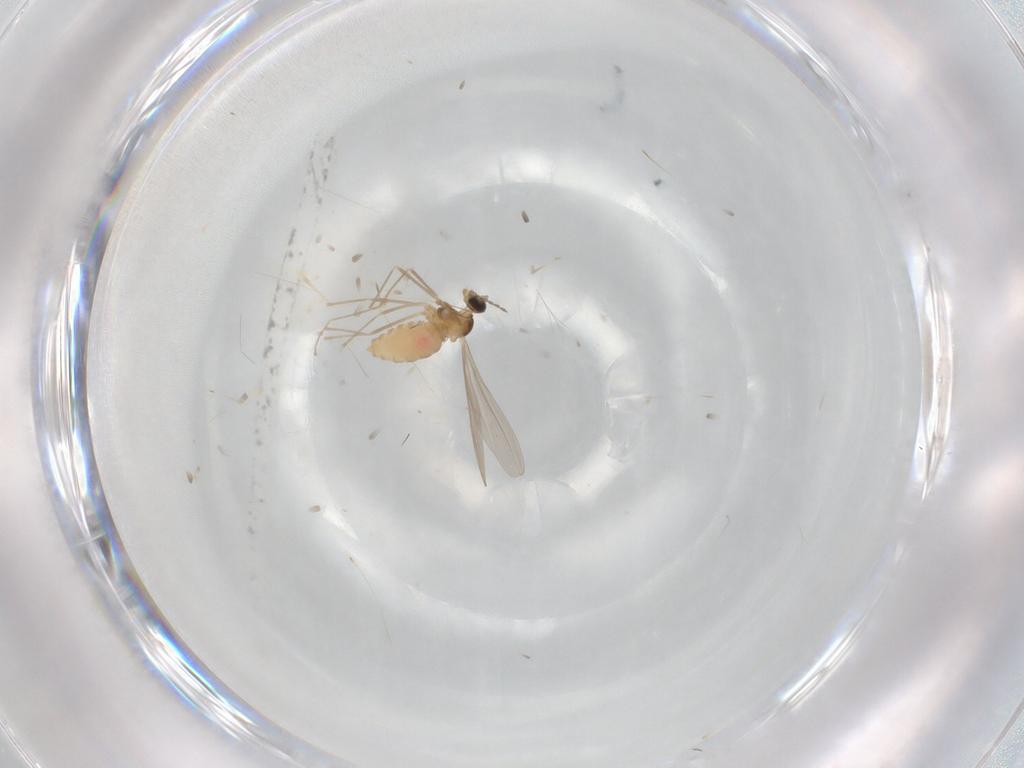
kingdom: Animalia
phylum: Arthropoda
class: Insecta
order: Diptera
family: Cecidomyiidae
